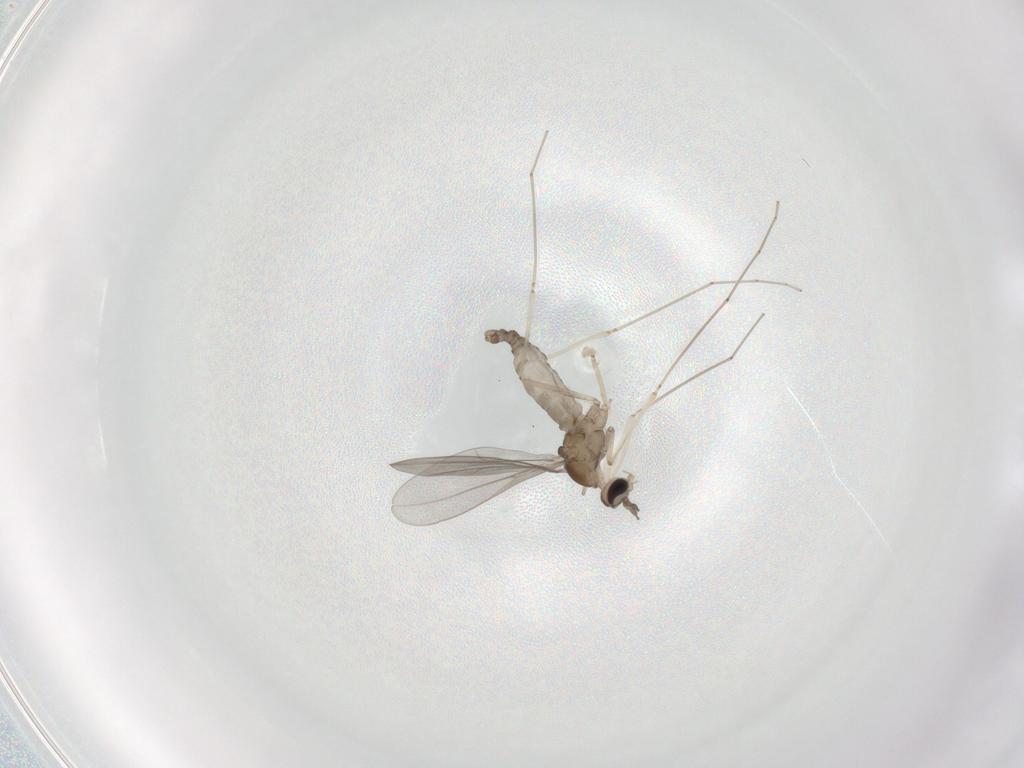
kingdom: Animalia
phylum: Arthropoda
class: Insecta
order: Diptera
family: Cecidomyiidae
